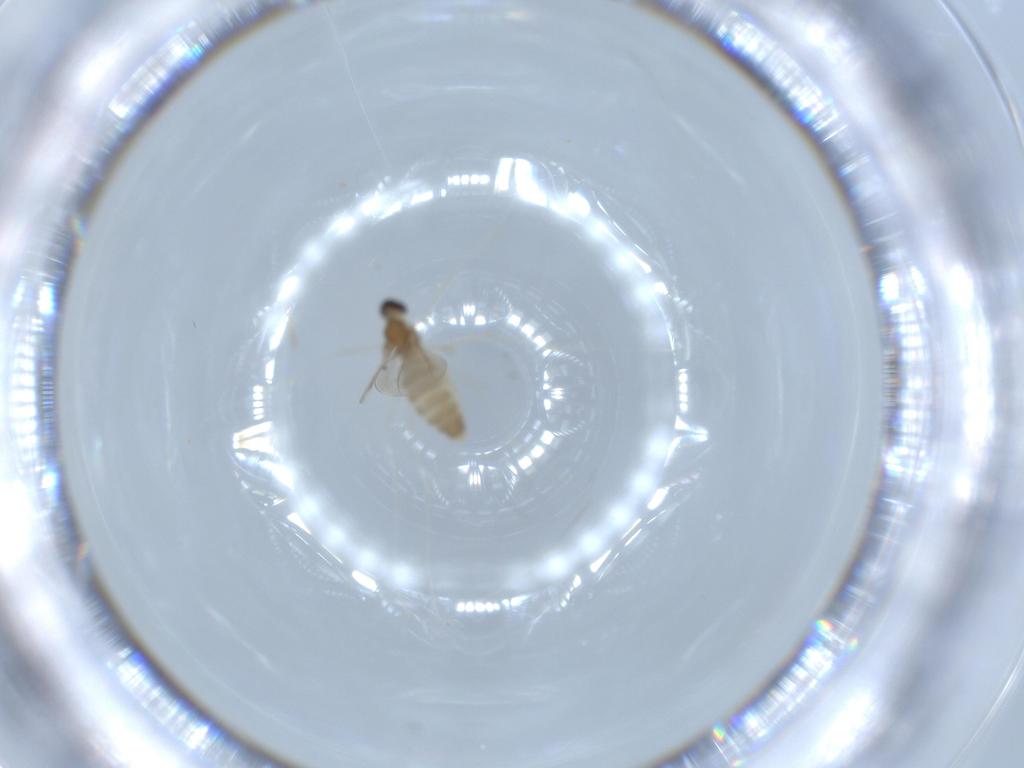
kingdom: Animalia
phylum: Arthropoda
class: Insecta
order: Diptera
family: Cecidomyiidae
